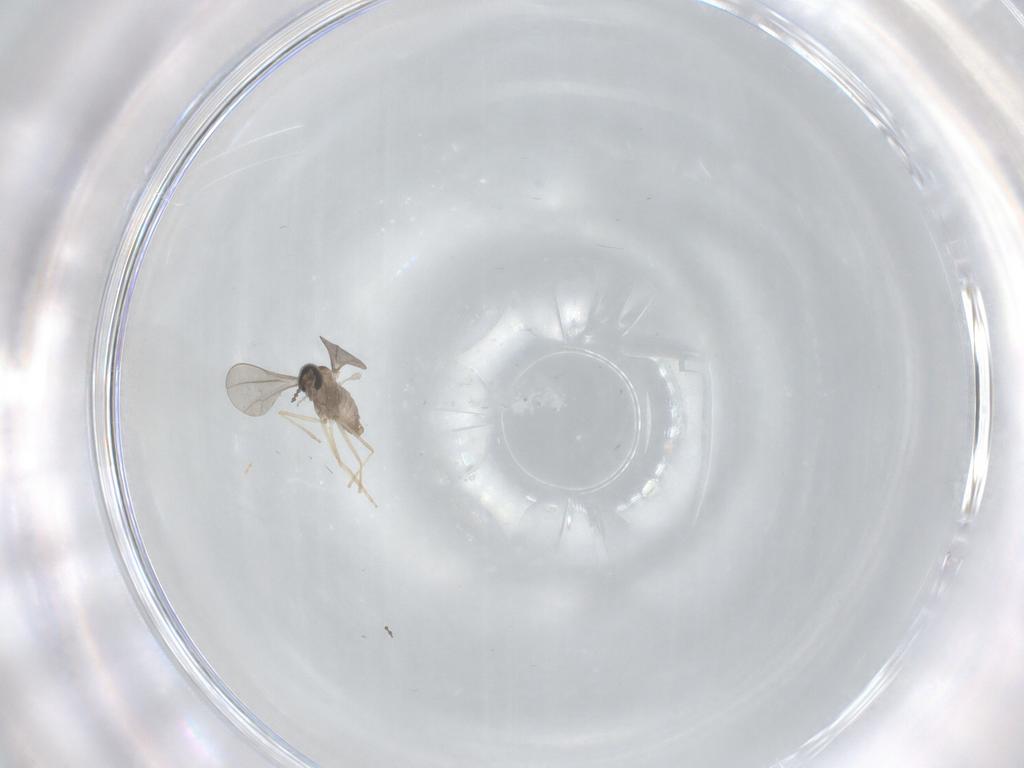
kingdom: Animalia
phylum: Arthropoda
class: Insecta
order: Diptera
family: Cecidomyiidae
